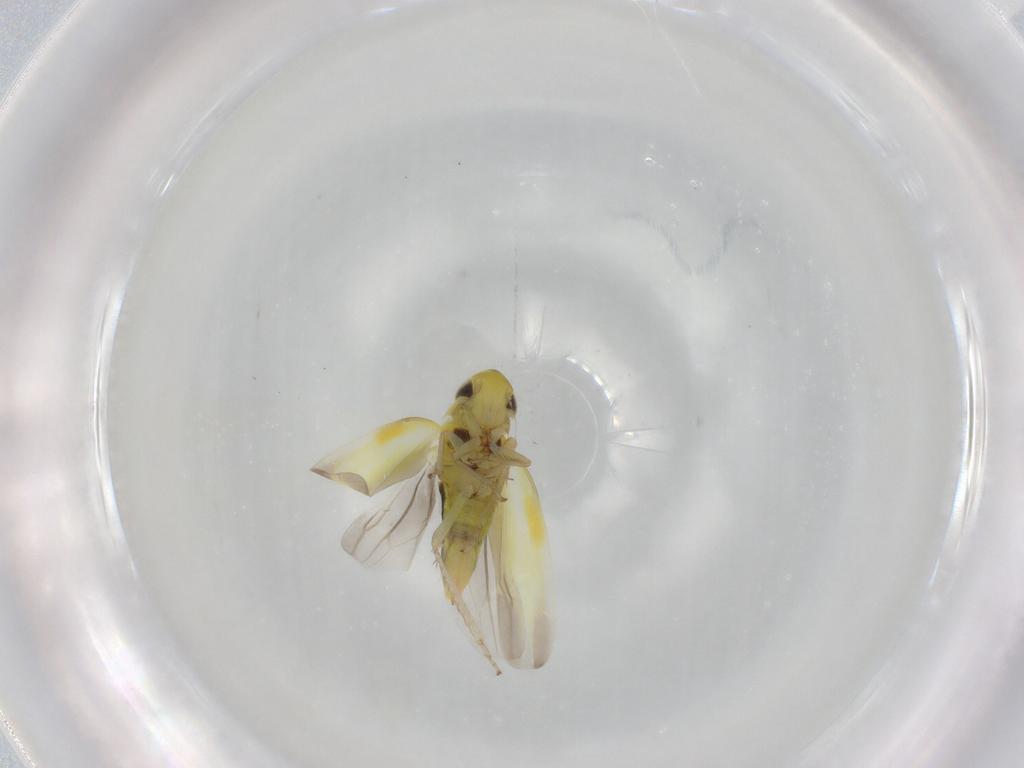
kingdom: Animalia
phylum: Arthropoda
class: Insecta
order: Hemiptera
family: Cicadellidae
